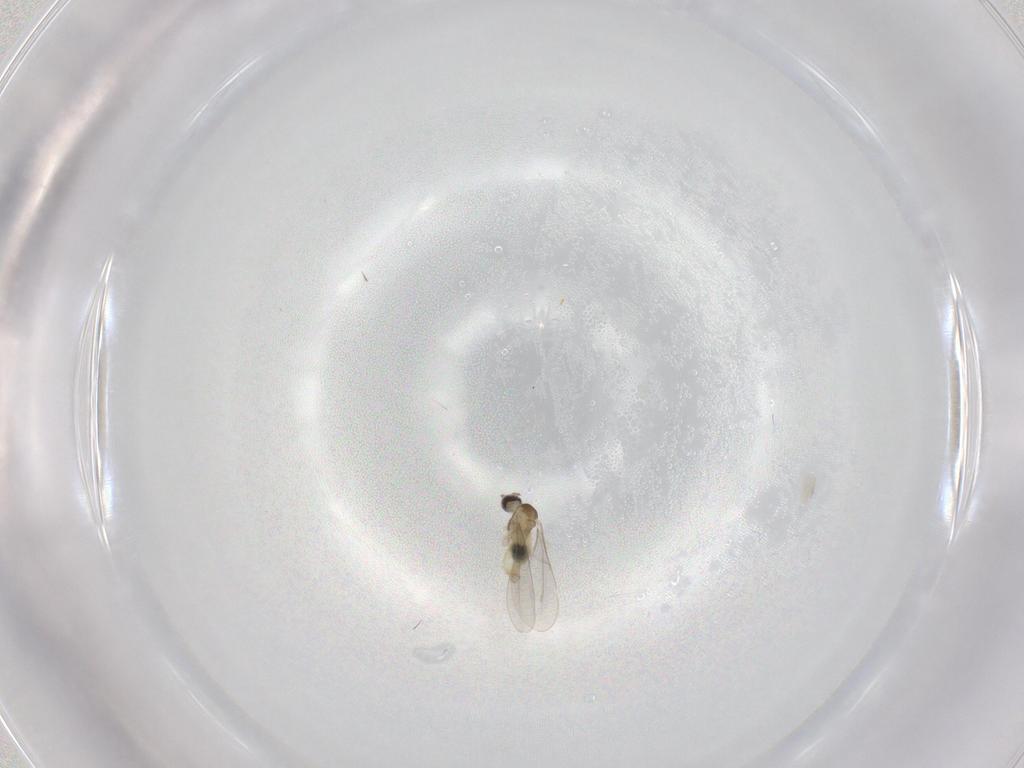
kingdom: Animalia
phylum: Arthropoda
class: Insecta
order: Diptera
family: Cecidomyiidae
